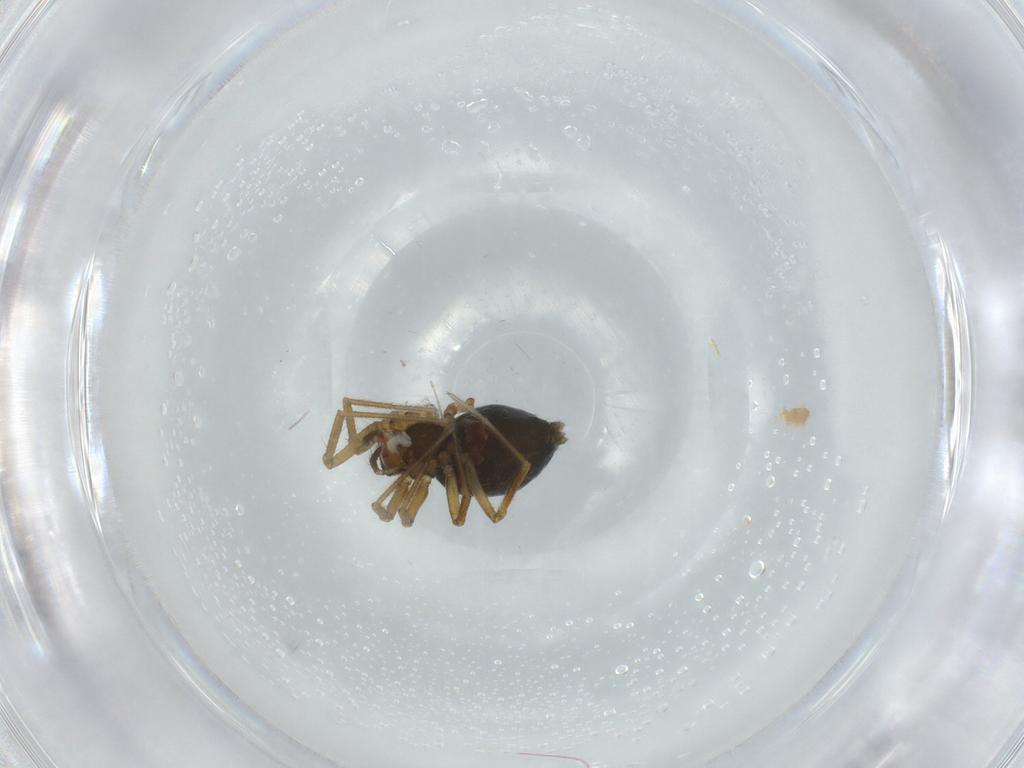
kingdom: Animalia
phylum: Arthropoda
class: Arachnida
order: Araneae
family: Linyphiidae
